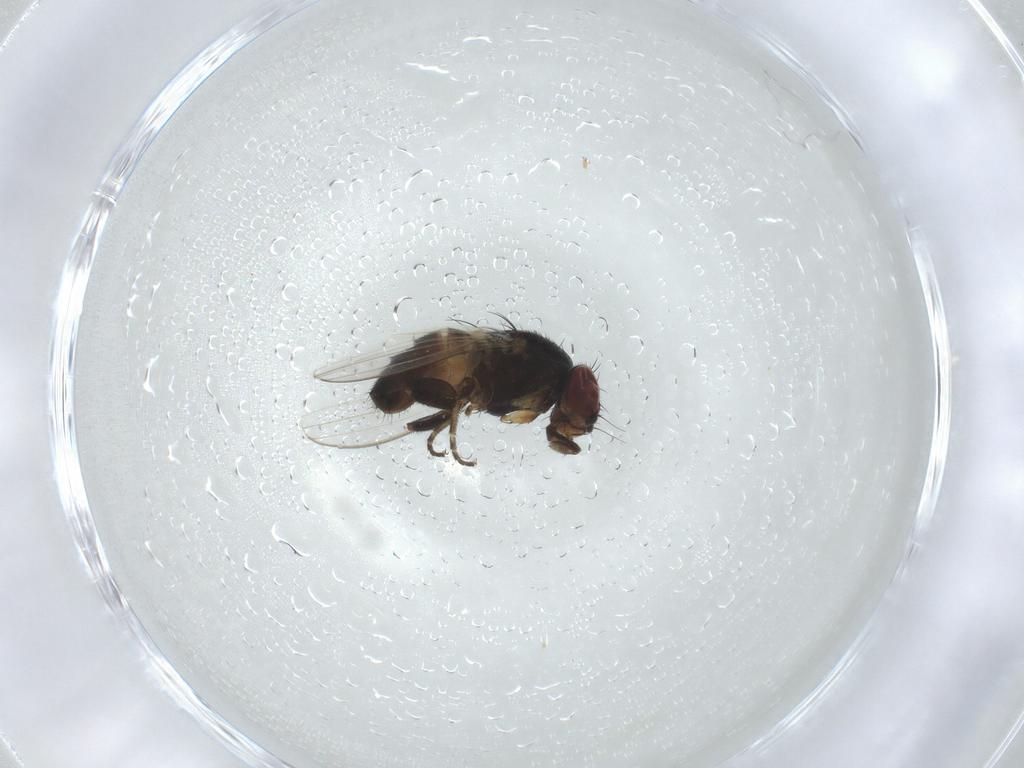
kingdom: Animalia
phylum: Arthropoda
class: Insecta
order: Diptera
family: Milichiidae
